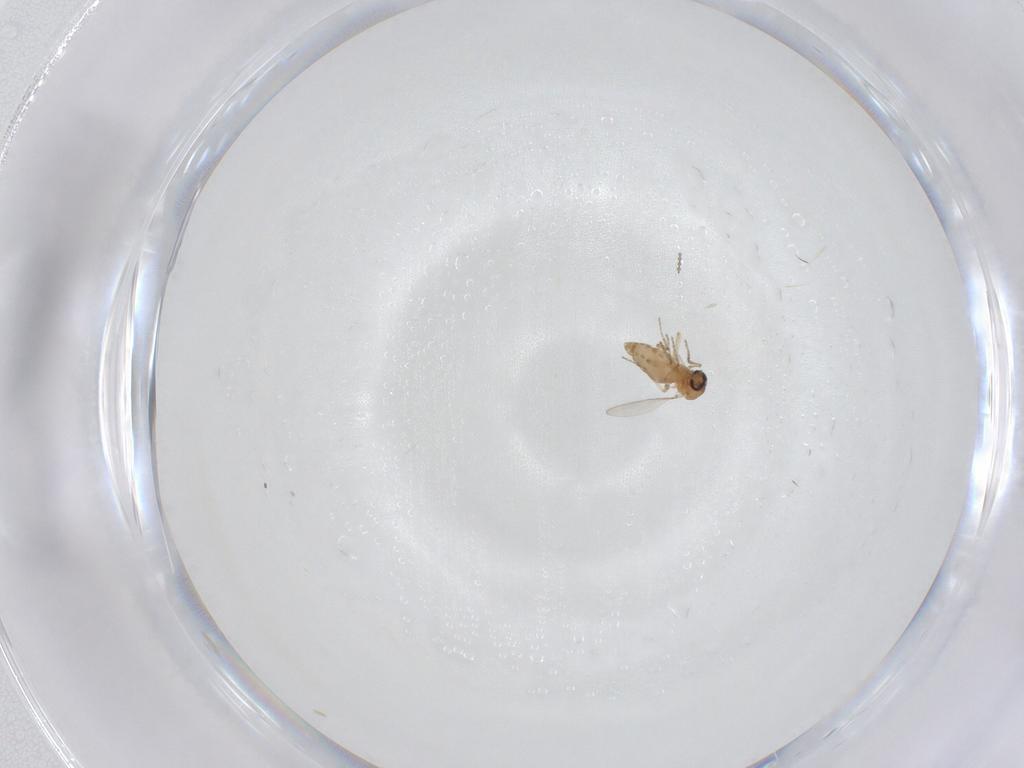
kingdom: Animalia
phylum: Arthropoda
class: Insecta
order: Diptera
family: Ceratopogonidae
